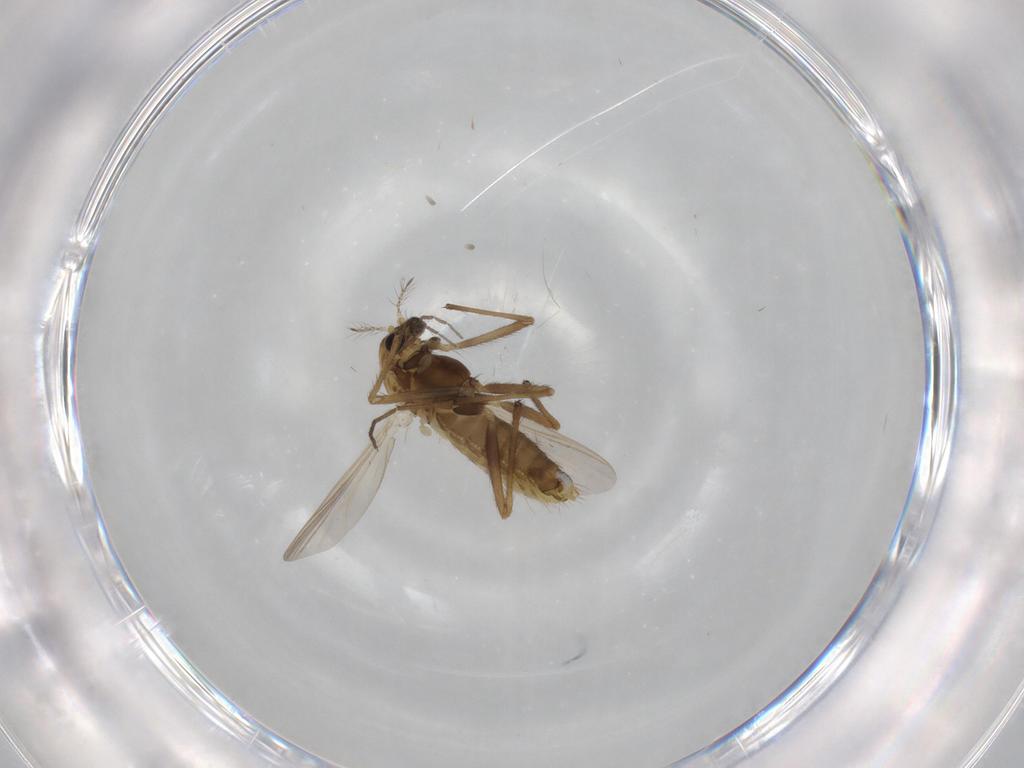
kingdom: Animalia
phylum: Arthropoda
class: Insecta
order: Diptera
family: Chironomidae
